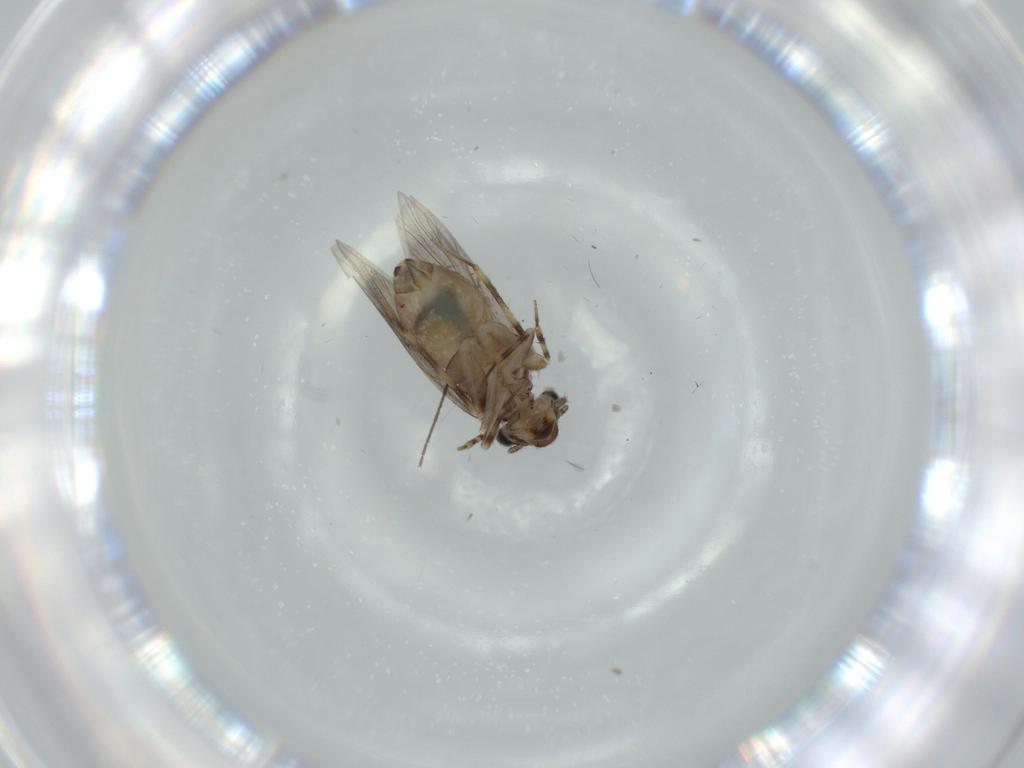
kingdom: Animalia
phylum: Arthropoda
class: Insecta
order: Psocodea
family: Lepidopsocidae
